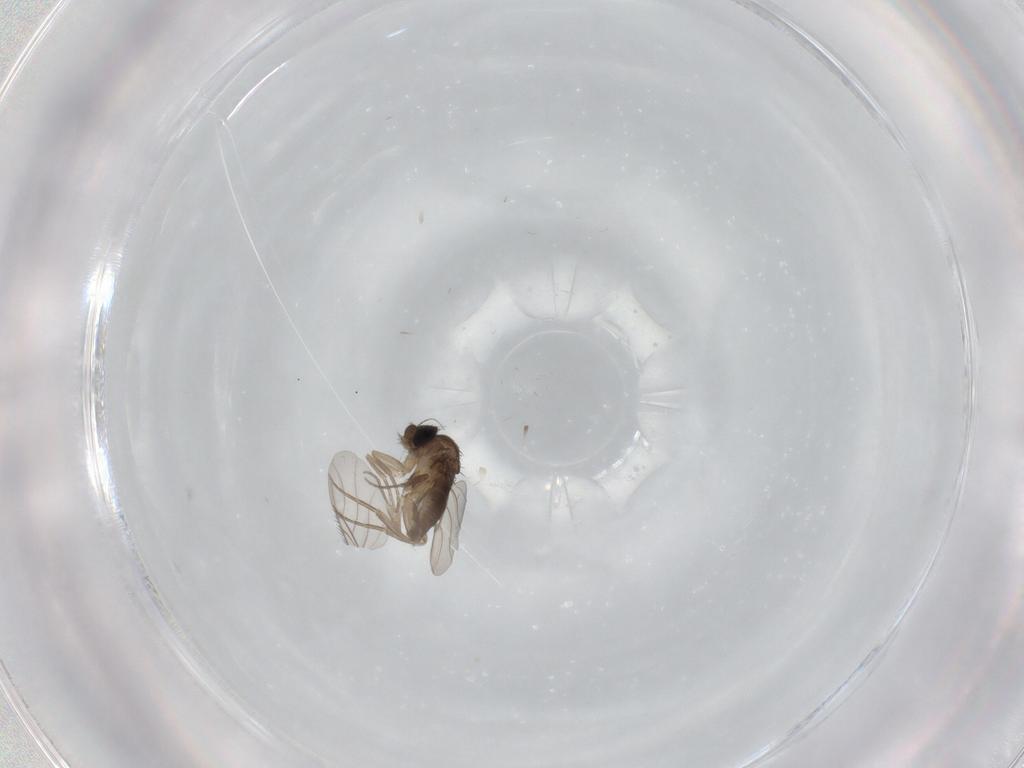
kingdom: Animalia
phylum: Arthropoda
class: Insecta
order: Diptera
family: Phoridae
